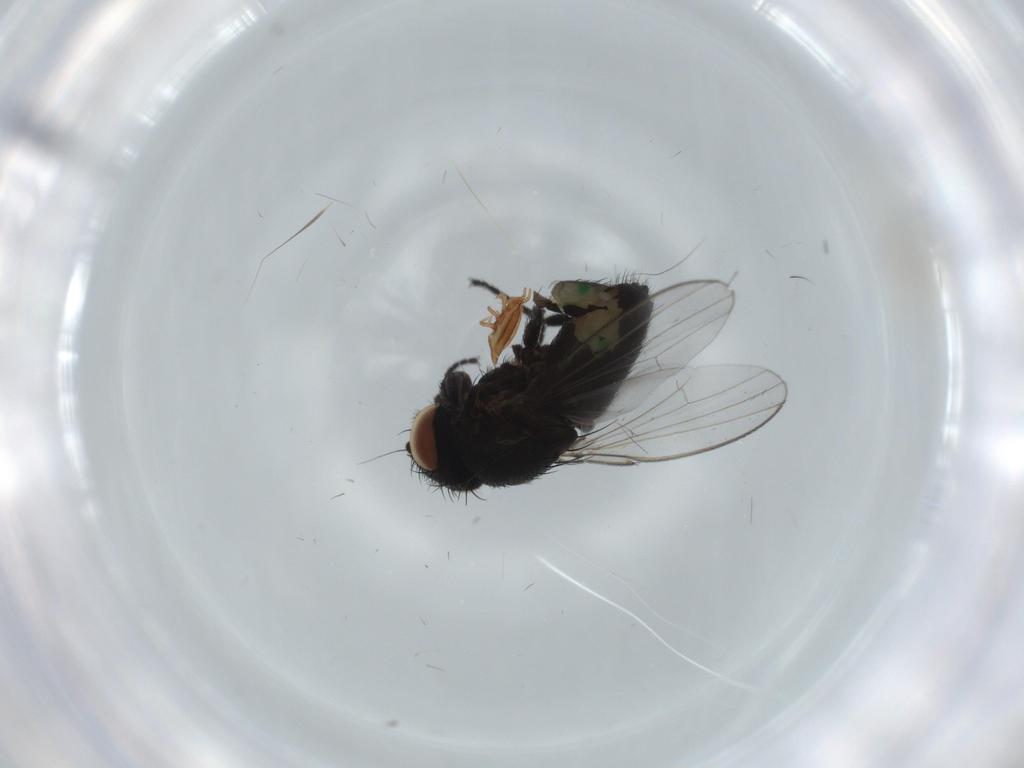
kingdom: Animalia
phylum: Arthropoda
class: Insecta
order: Diptera
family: Milichiidae
